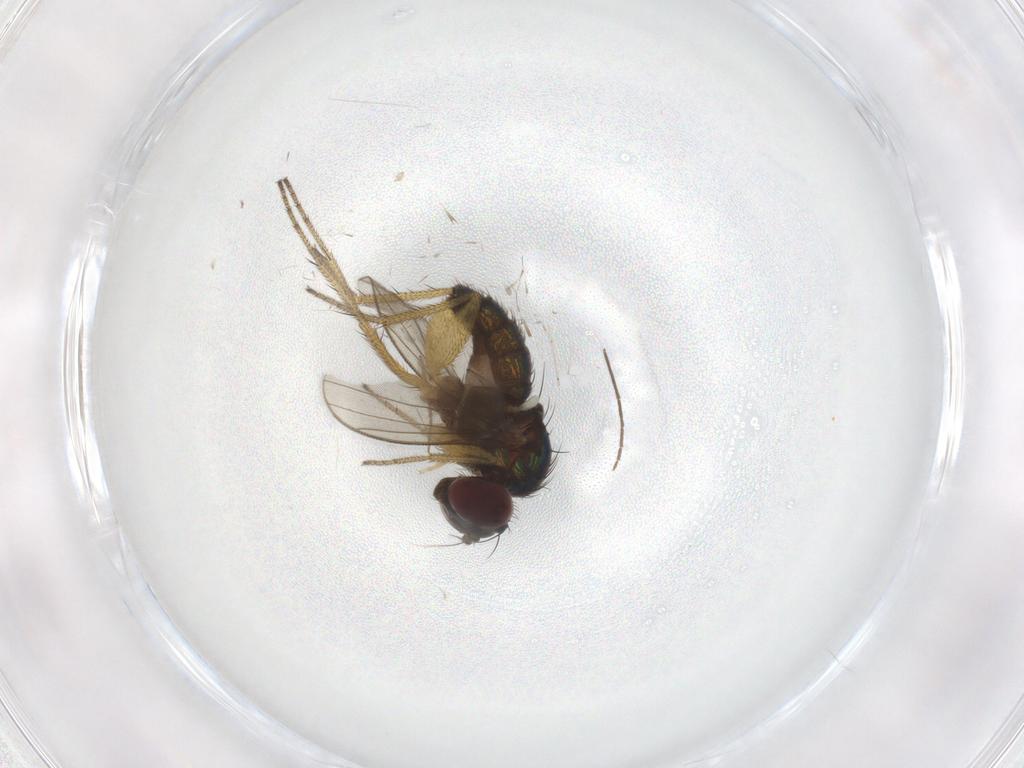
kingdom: Animalia
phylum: Arthropoda
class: Insecta
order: Diptera
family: Dolichopodidae
